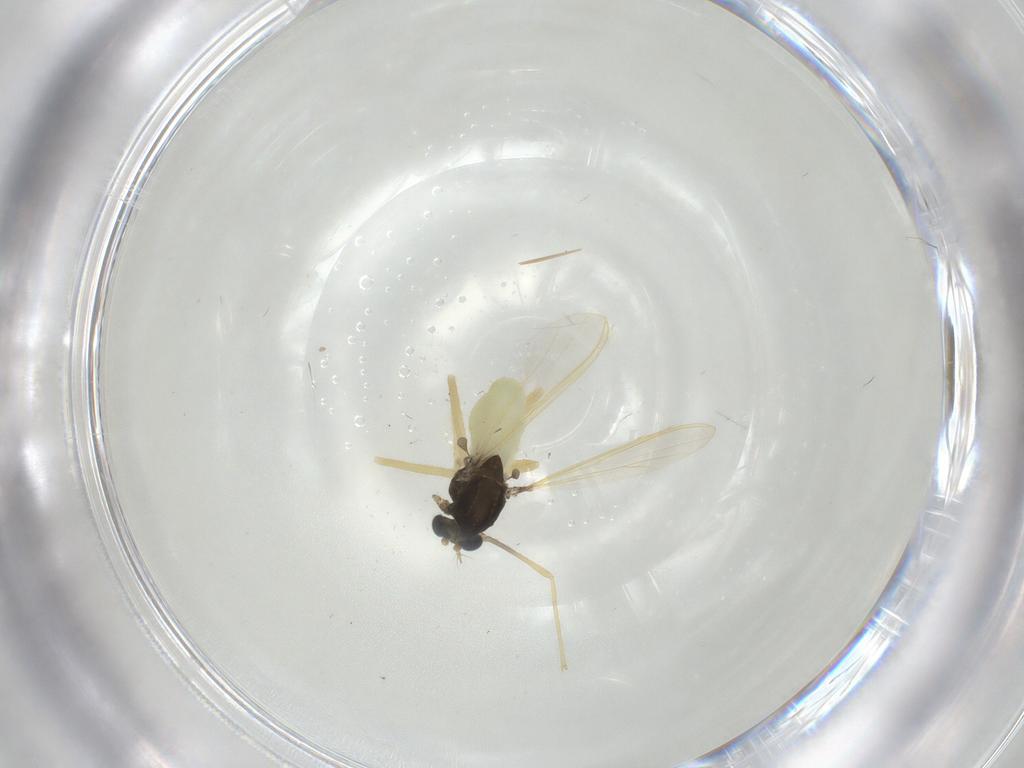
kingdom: Animalia
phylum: Arthropoda
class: Insecta
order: Diptera
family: Chironomidae
